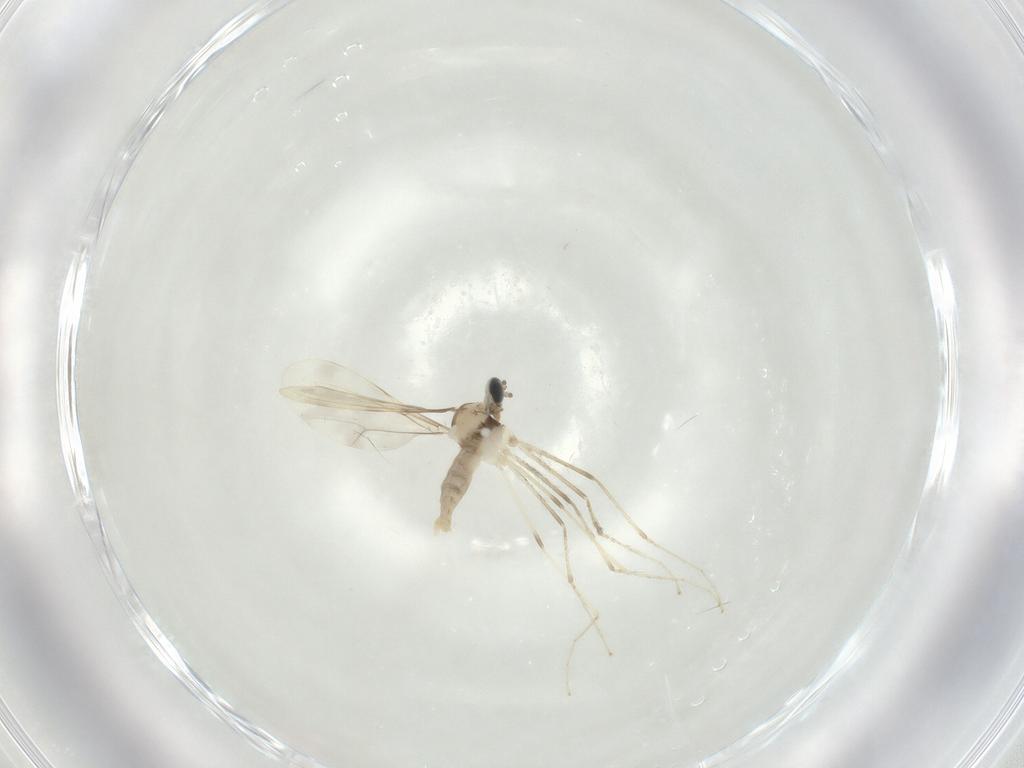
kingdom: Animalia
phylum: Arthropoda
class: Insecta
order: Diptera
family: Cecidomyiidae
